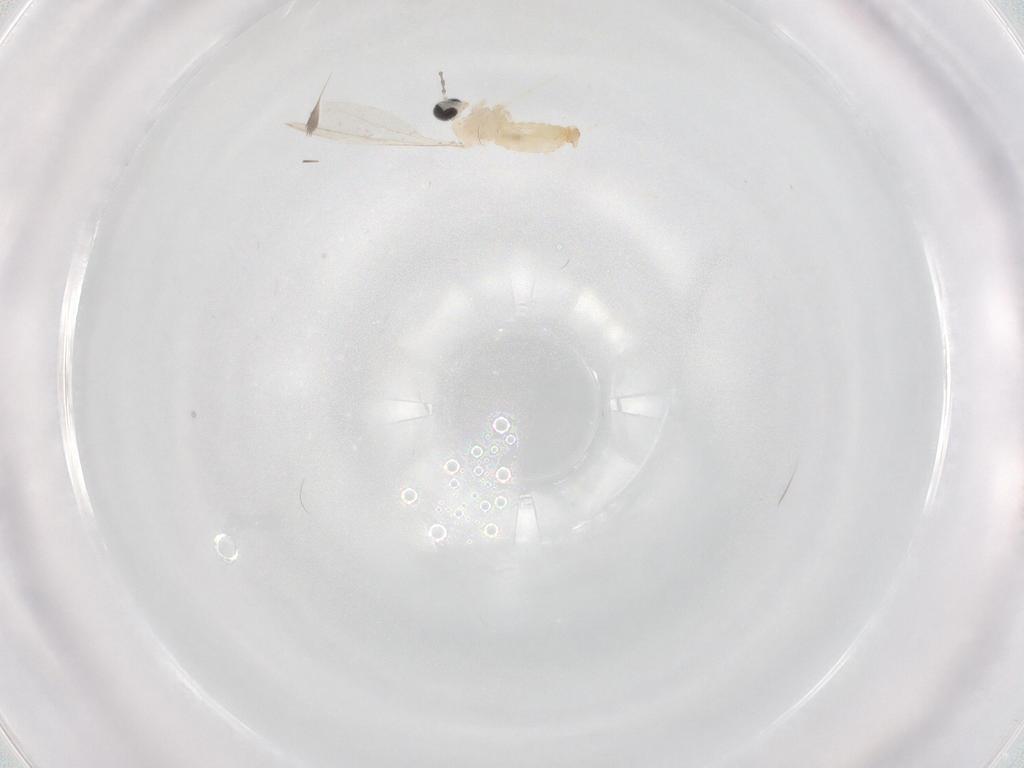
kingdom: Animalia
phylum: Arthropoda
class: Insecta
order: Diptera
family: Cecidomyiidae
